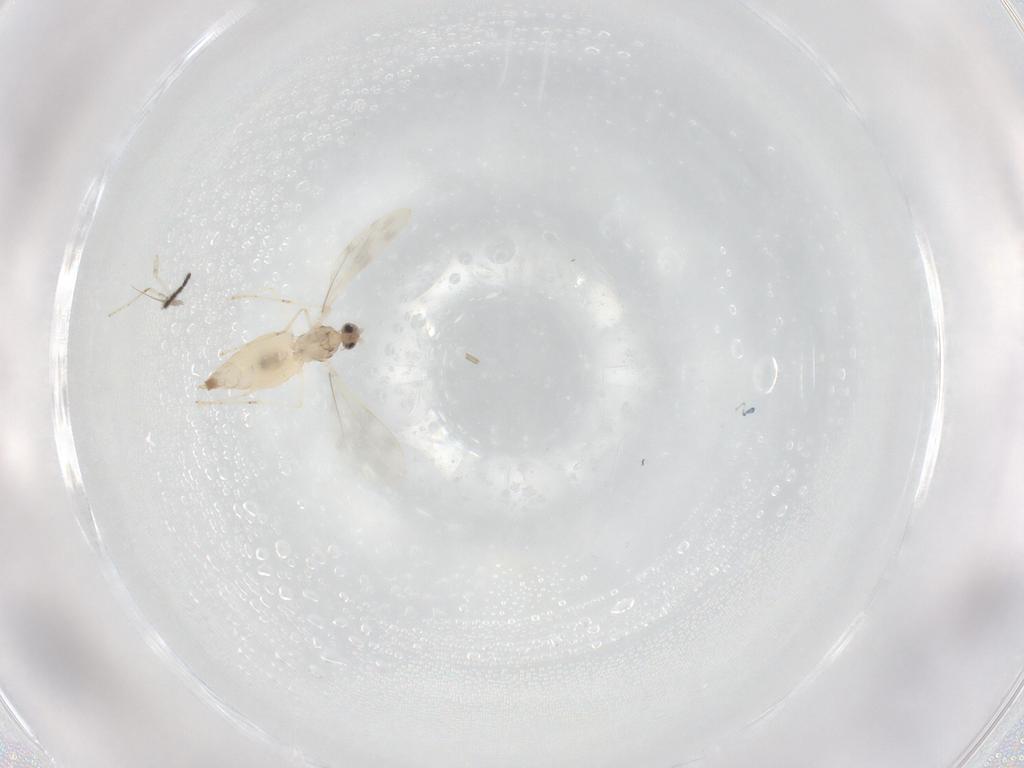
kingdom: Animalia
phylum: Arthropoda
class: Insecta
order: Diptera
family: Cecidomyiidae
